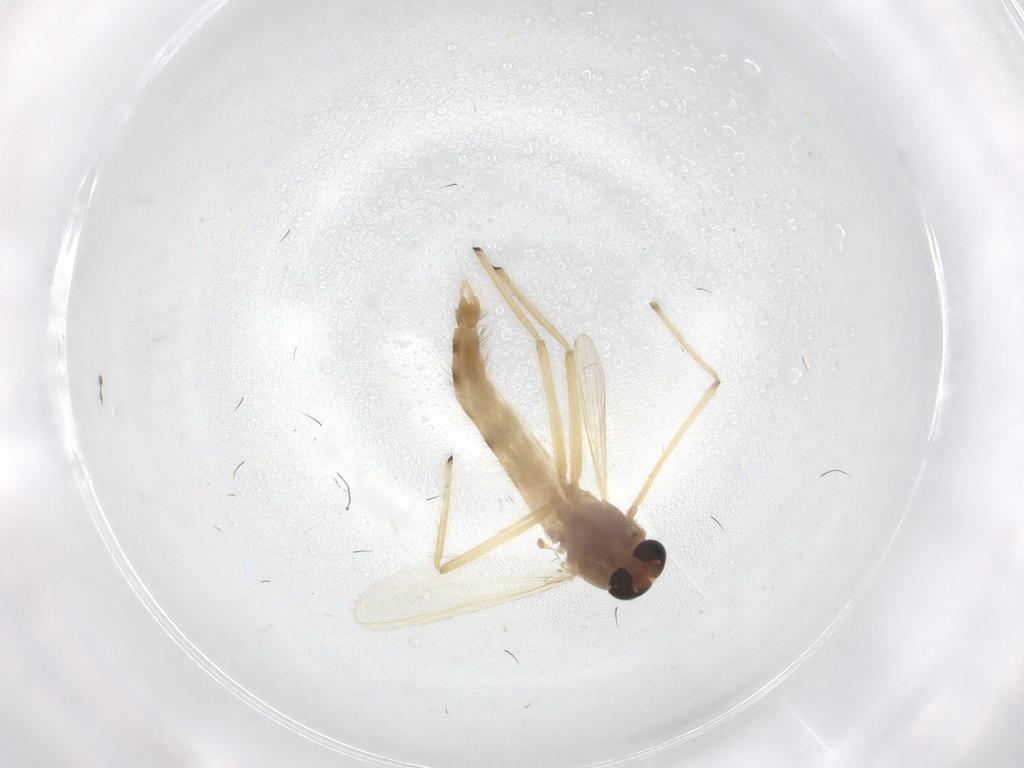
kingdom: Animalia
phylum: Arthropoda
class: Insecta
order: Diptera
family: Chironomidae
